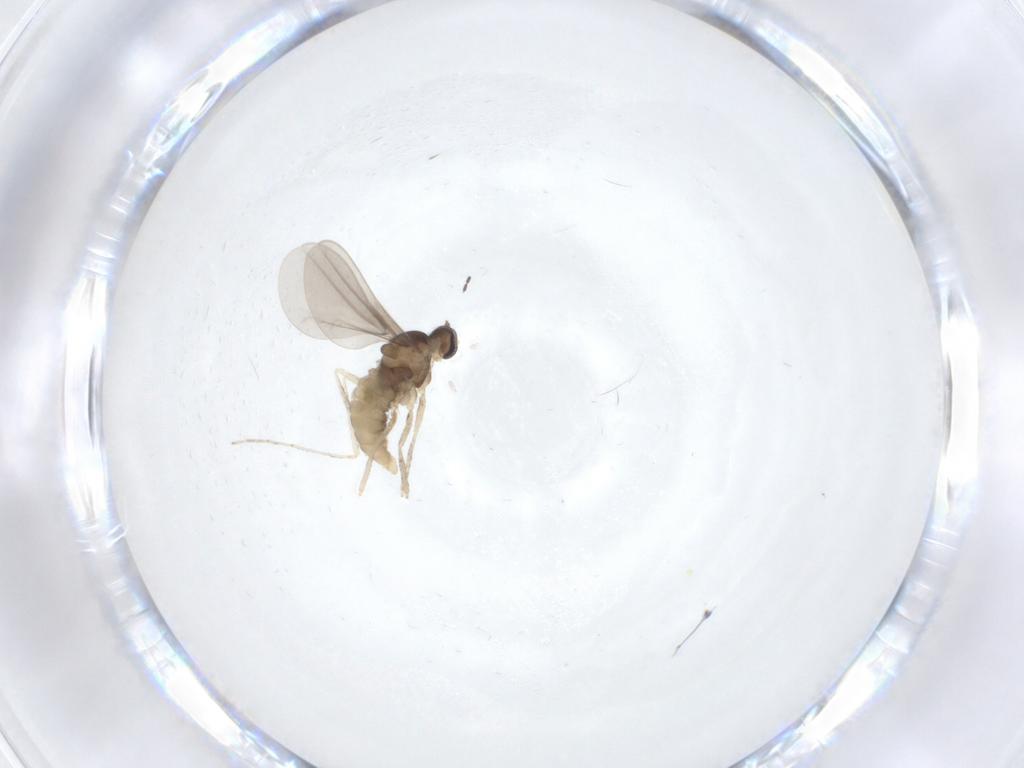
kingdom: Animalia
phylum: Arthropoda
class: Insecta
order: Diptera
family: Cecidomyiidae
